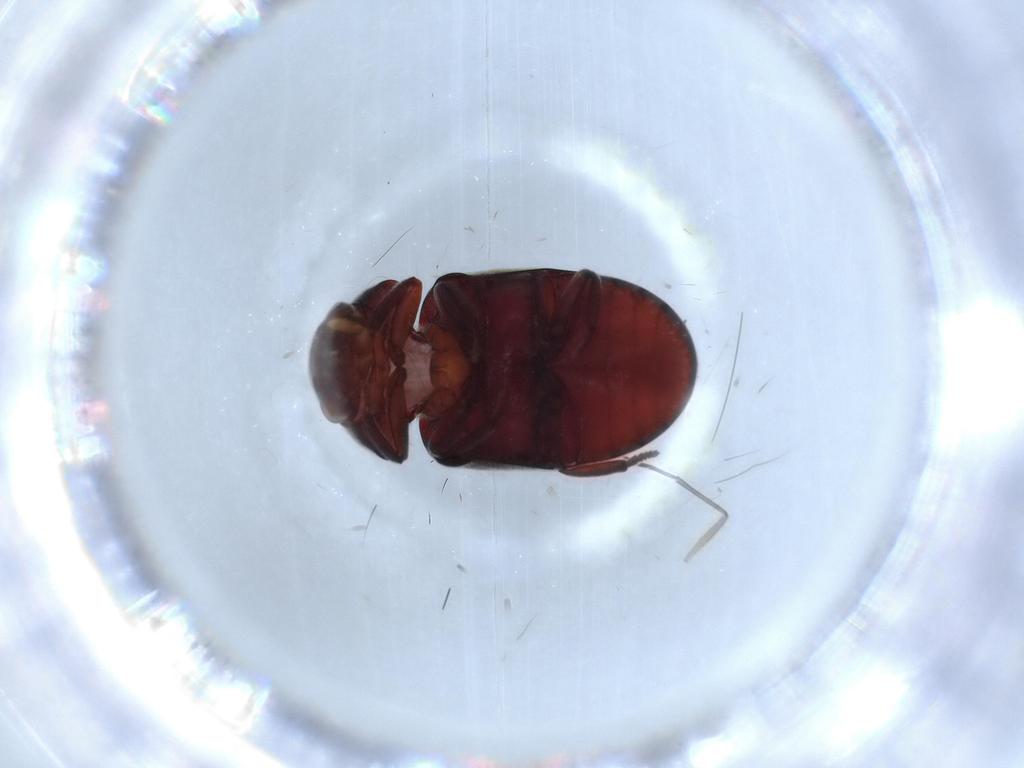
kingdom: Animalia
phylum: Arthropoda
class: Insecta
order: Coleoptera
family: Ptinidae
